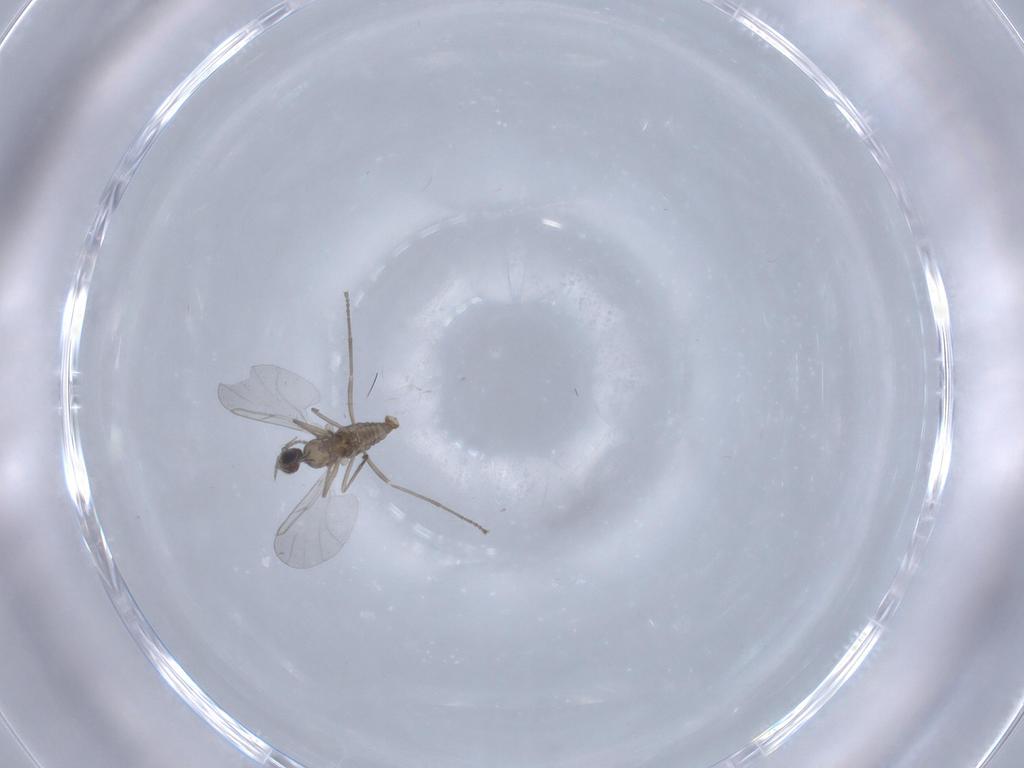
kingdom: Animalia
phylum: Arthropoda
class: Insecta
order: Diptera
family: Cecidomyiidae
